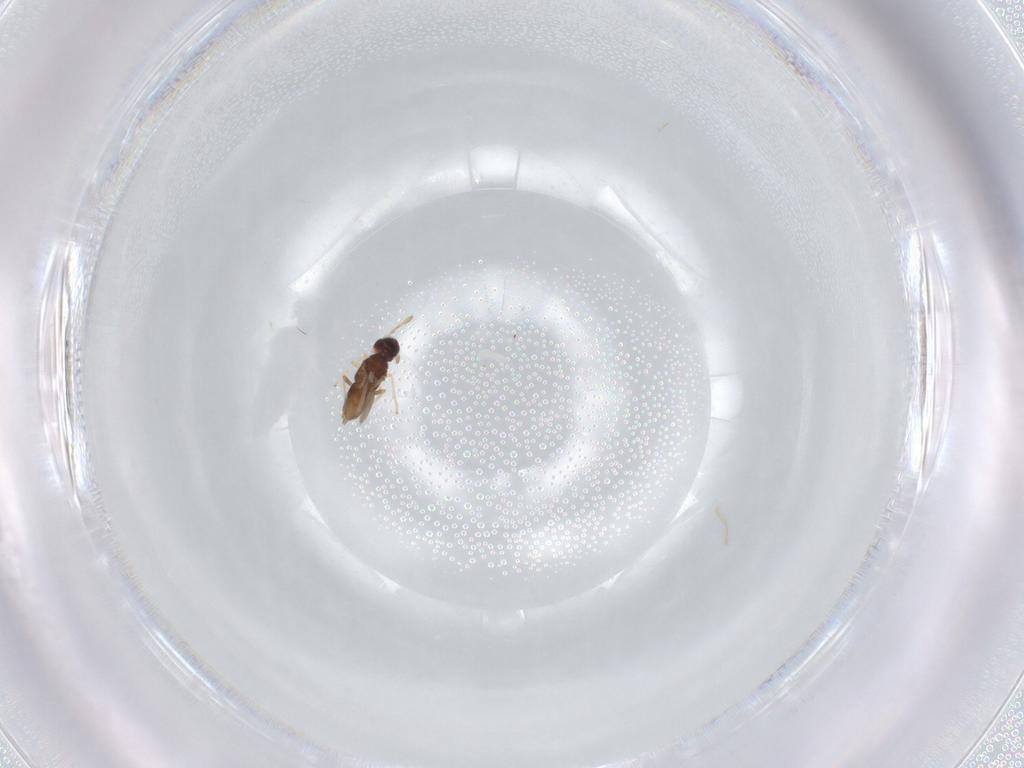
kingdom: Animalia
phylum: Arthropoda
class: Insecta
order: Hymenoptera
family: Encyrtidae
